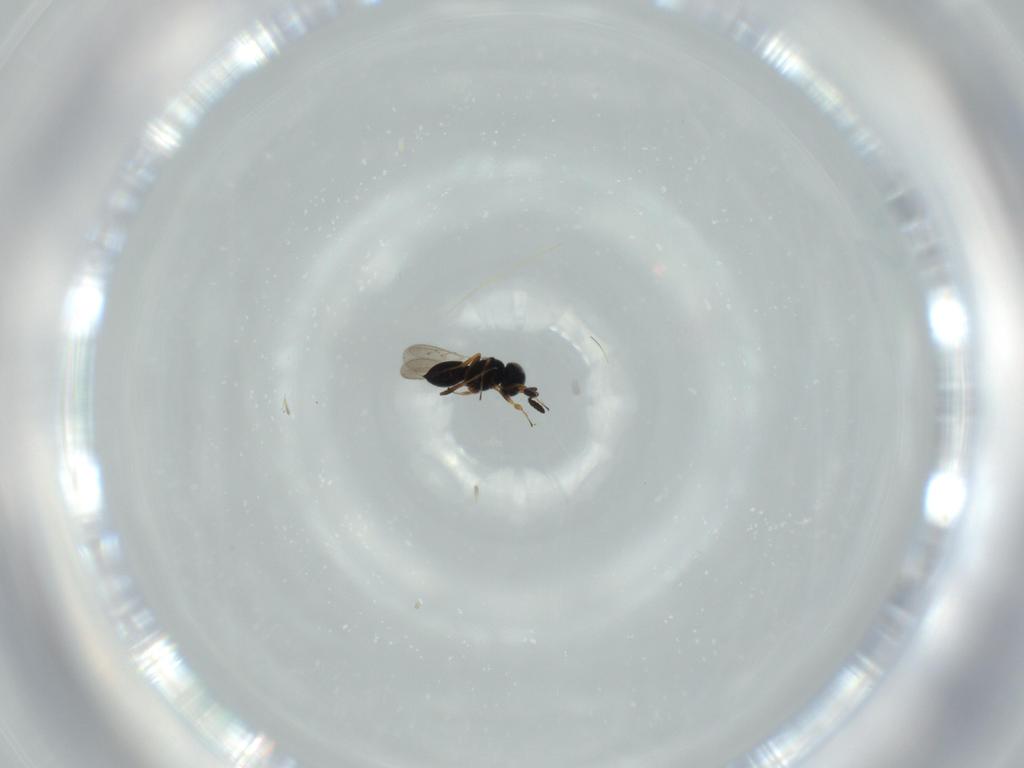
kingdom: Animalia
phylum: Arthropoda
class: Insecta
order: Hymenoptera
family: Scelionidae
